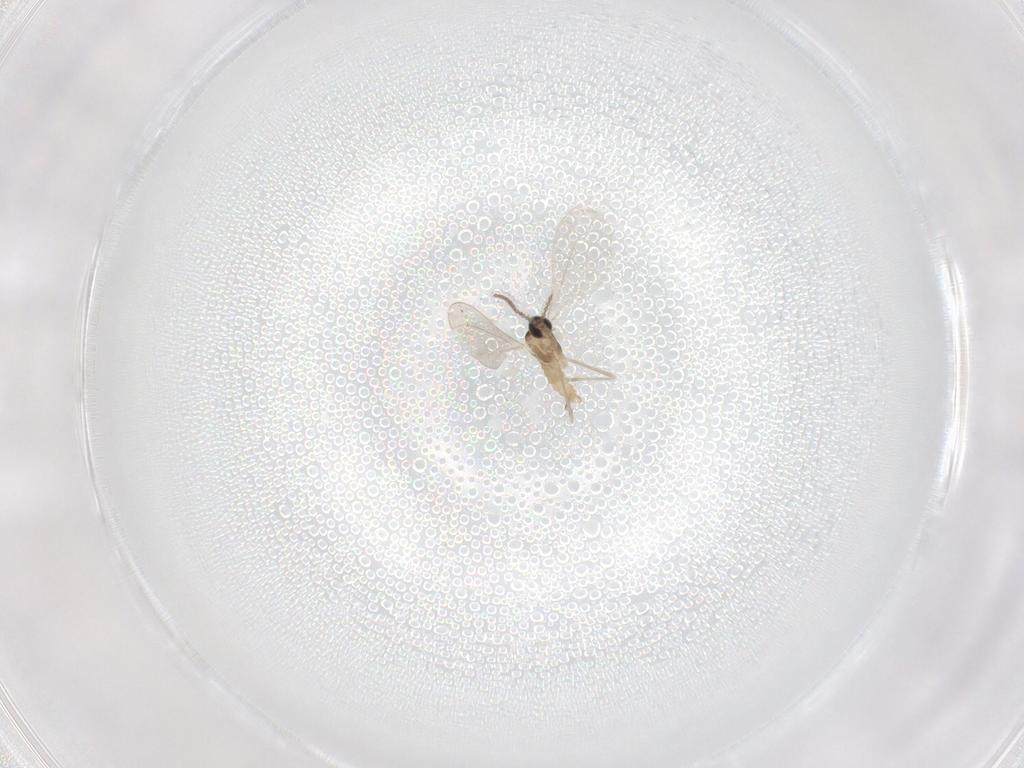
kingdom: Animalia
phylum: Arthropoda
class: Insecta
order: Diptera
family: Cecidomyiidae
